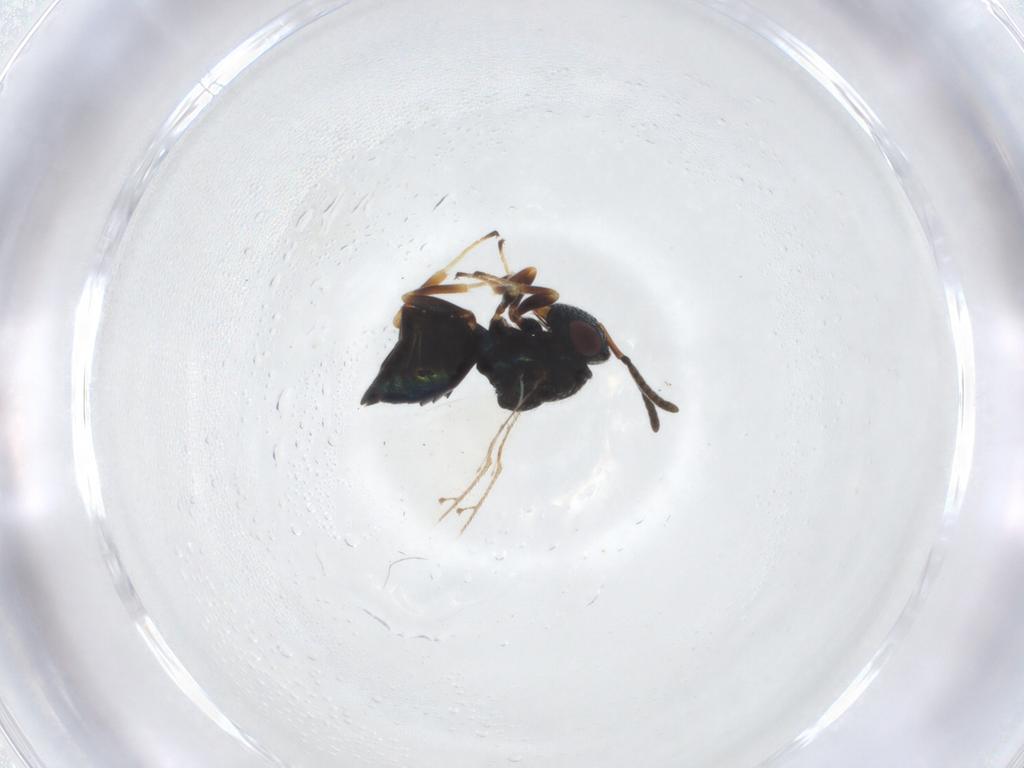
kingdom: Animalia
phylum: Arthropoda
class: Insecta
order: Hymenoptera
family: Pteromalidae
